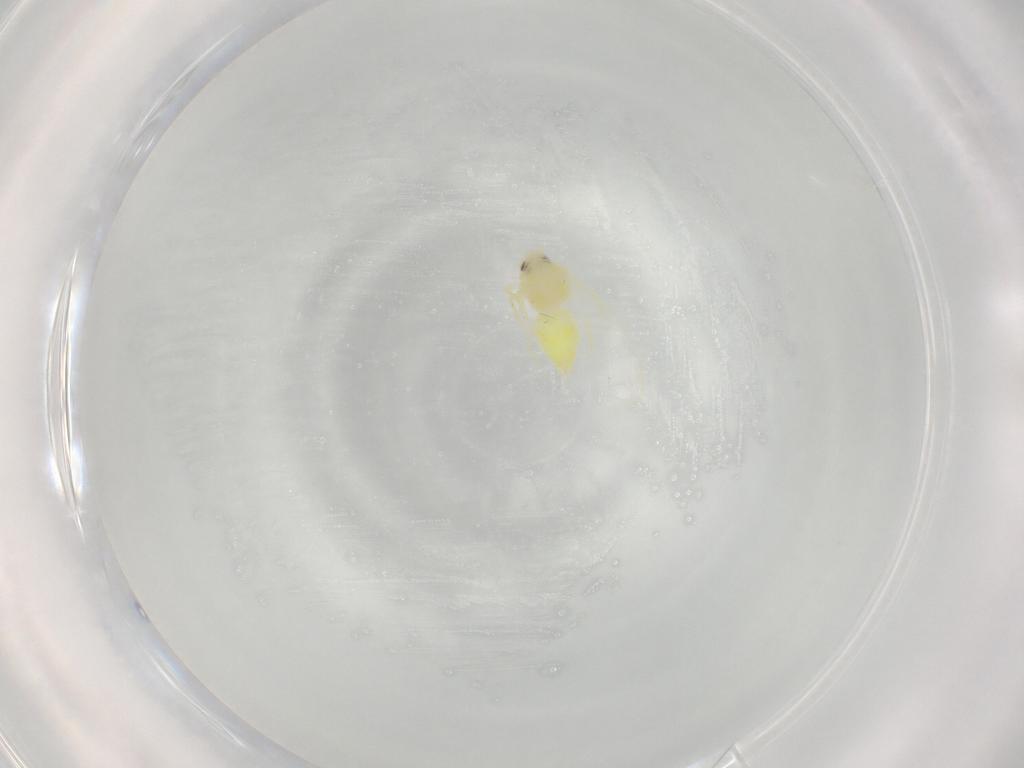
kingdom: Animalia
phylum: Arthropoda
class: Insecta
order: Hemiptera
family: Aleyrodidae
